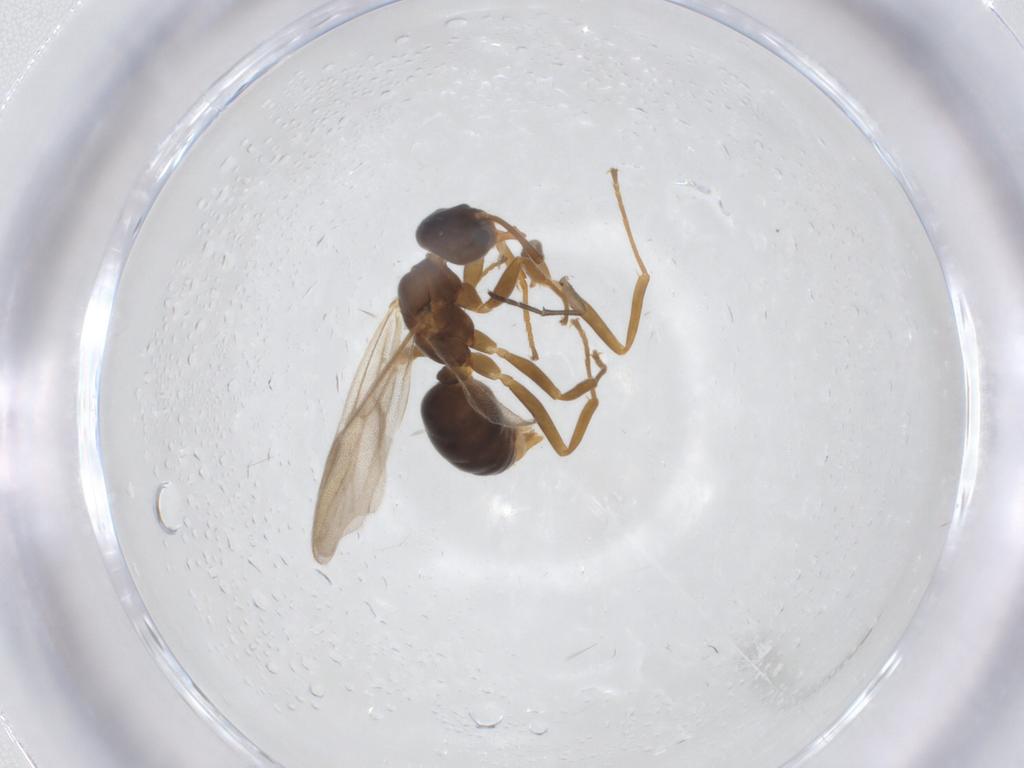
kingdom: Animalia
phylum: Arthropoda
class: Insecta
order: Hymenoptera
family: Formicidae
